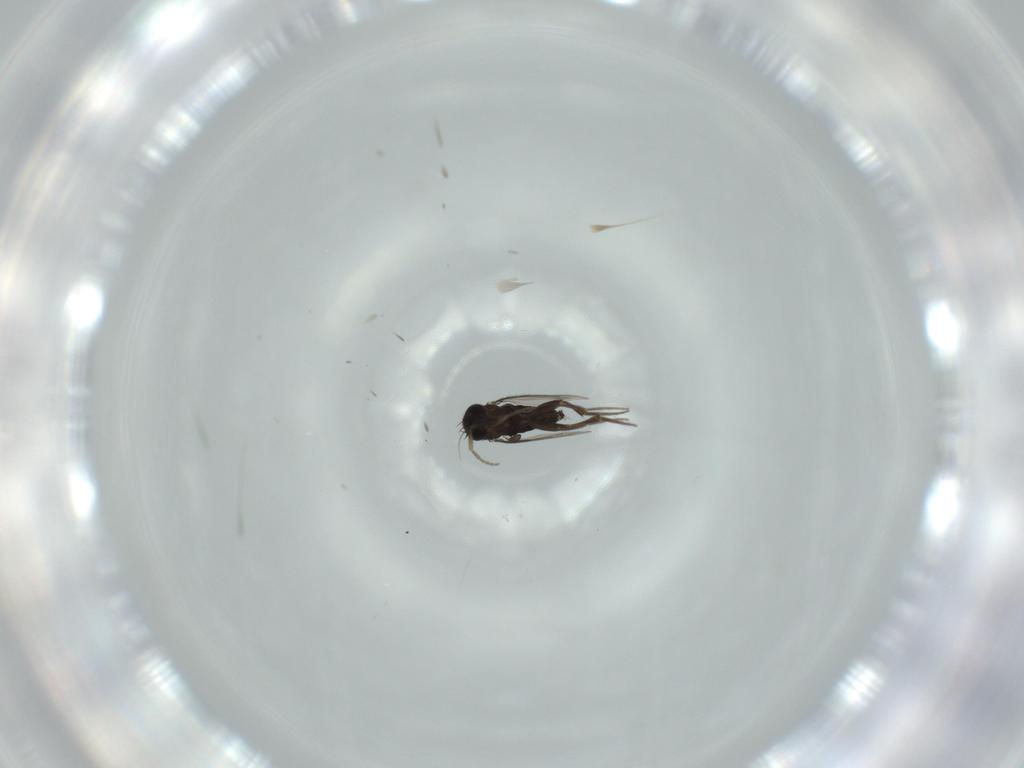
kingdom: Animalia
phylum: Arthropoda
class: Insecta
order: Diptera
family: Phoridae
